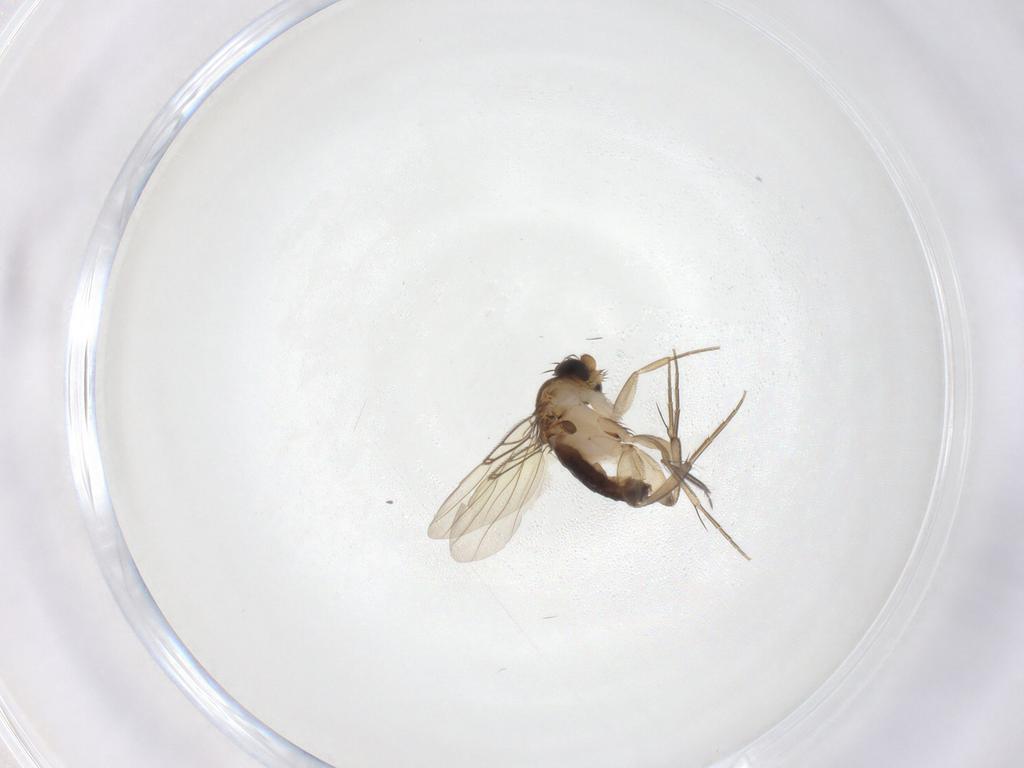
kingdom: Animalia
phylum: Arthropoda
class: Insecta
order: Diptera
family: Phoridae
